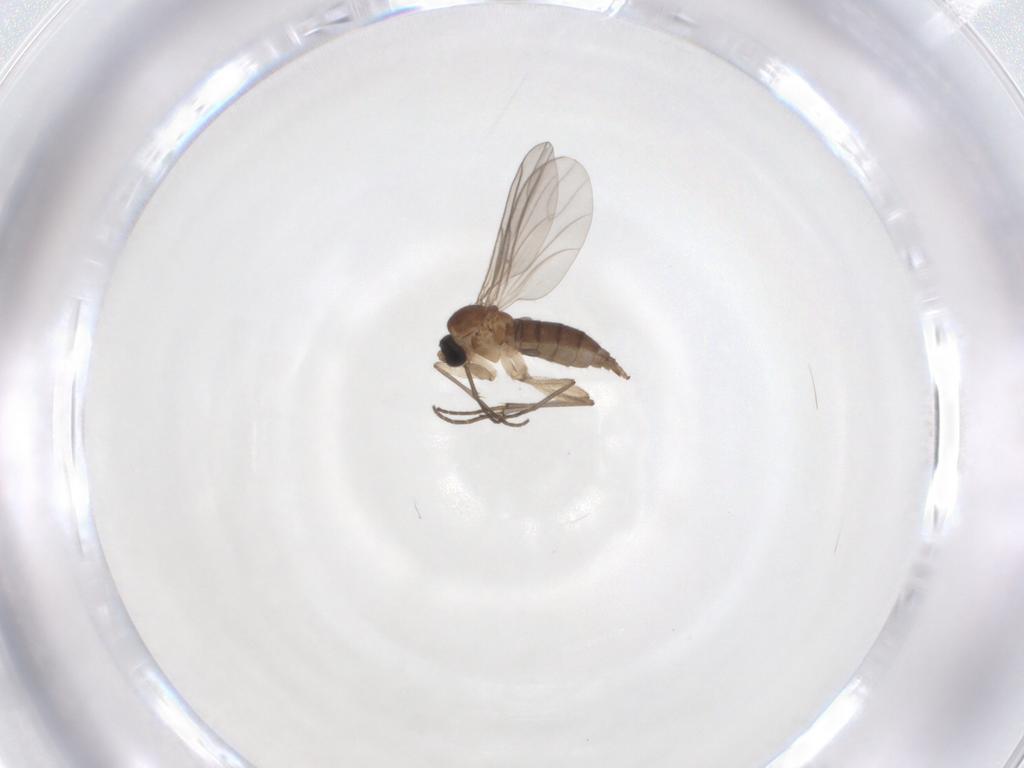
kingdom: Animalia
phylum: Arthropoda
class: Insecta
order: Diptera
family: Sciaridae
